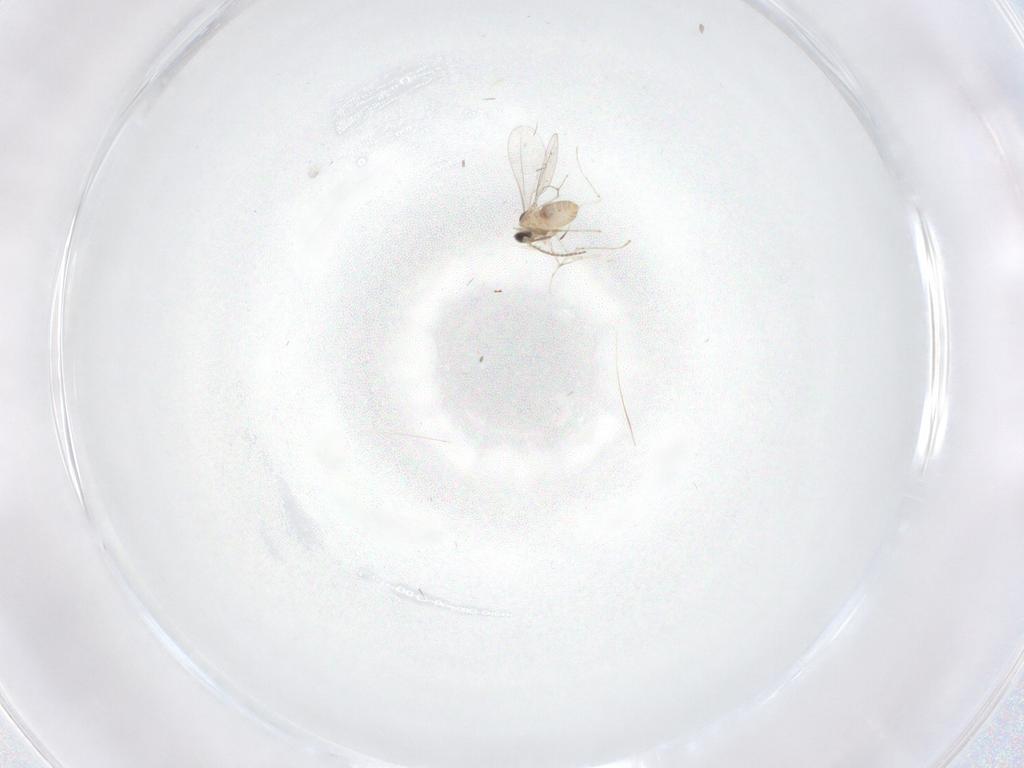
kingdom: Animalia
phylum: Arthropoda
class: Insecta
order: Diptera
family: Cecidomyiidae
